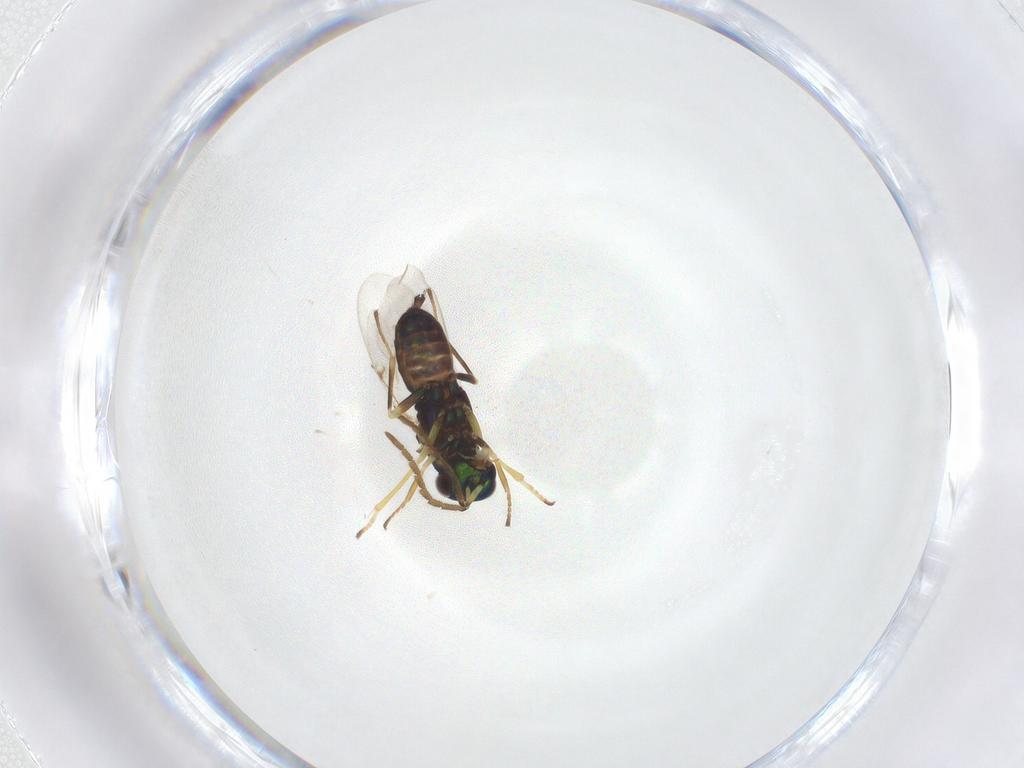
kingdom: Animalia
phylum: Arthropoda
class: Insecta
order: Hymenoptera
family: Encyrtidae
